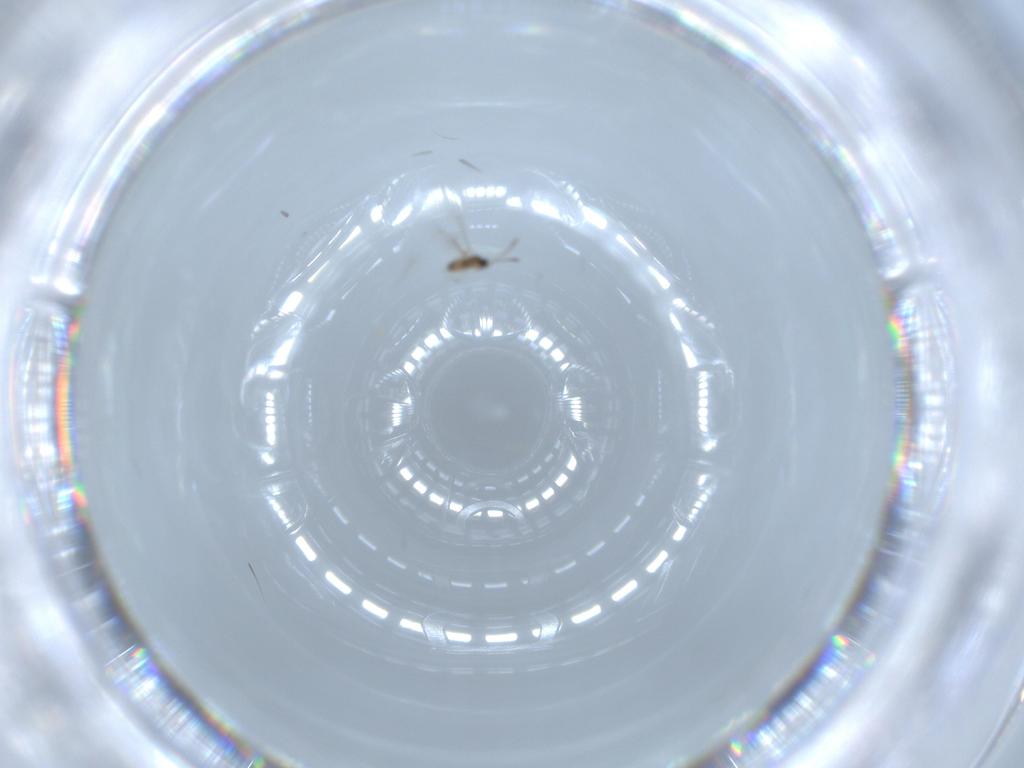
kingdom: Animalia
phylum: Arthropoda
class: Insecta
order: Hymenoptera
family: Mymaridae
